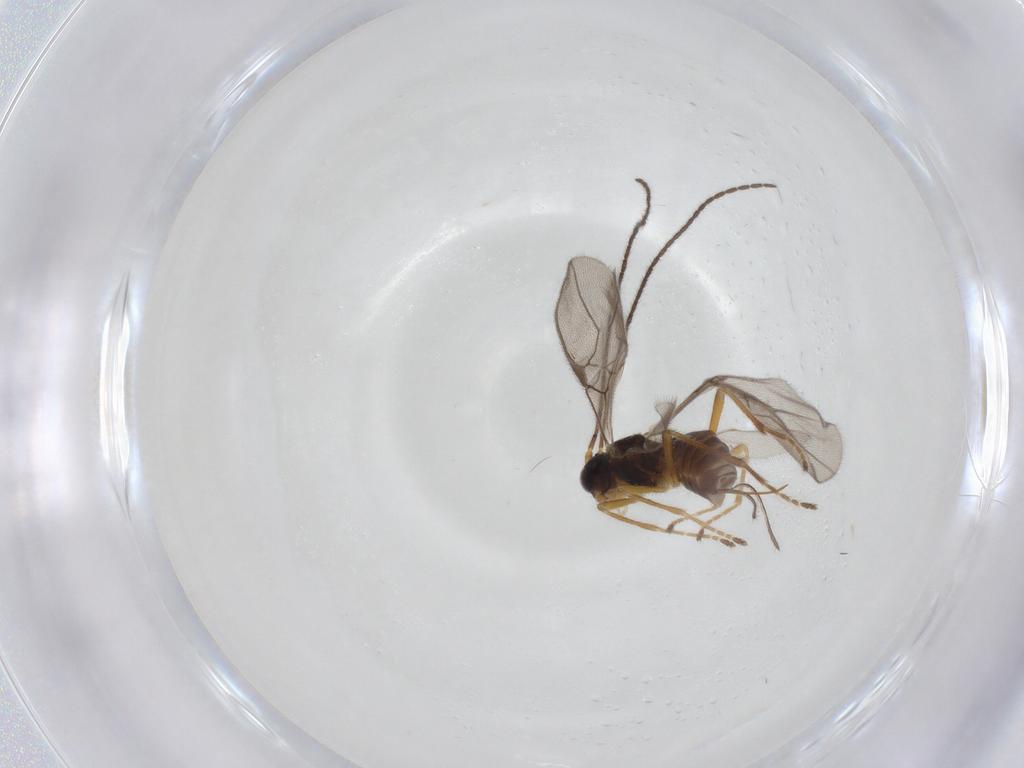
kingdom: Animalia
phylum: Arthropoda
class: Insecta
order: Hymenoptera
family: Braconidae
